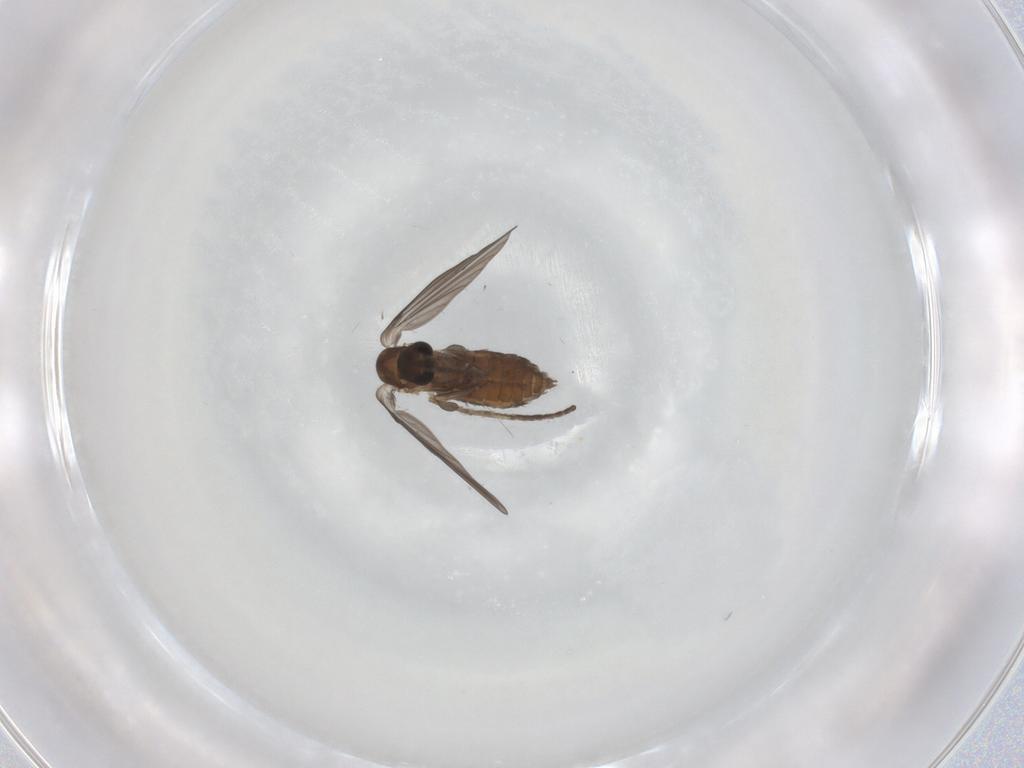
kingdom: Animalia
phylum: Arthropoda
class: Insecta
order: Diptera
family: Psychodidae
